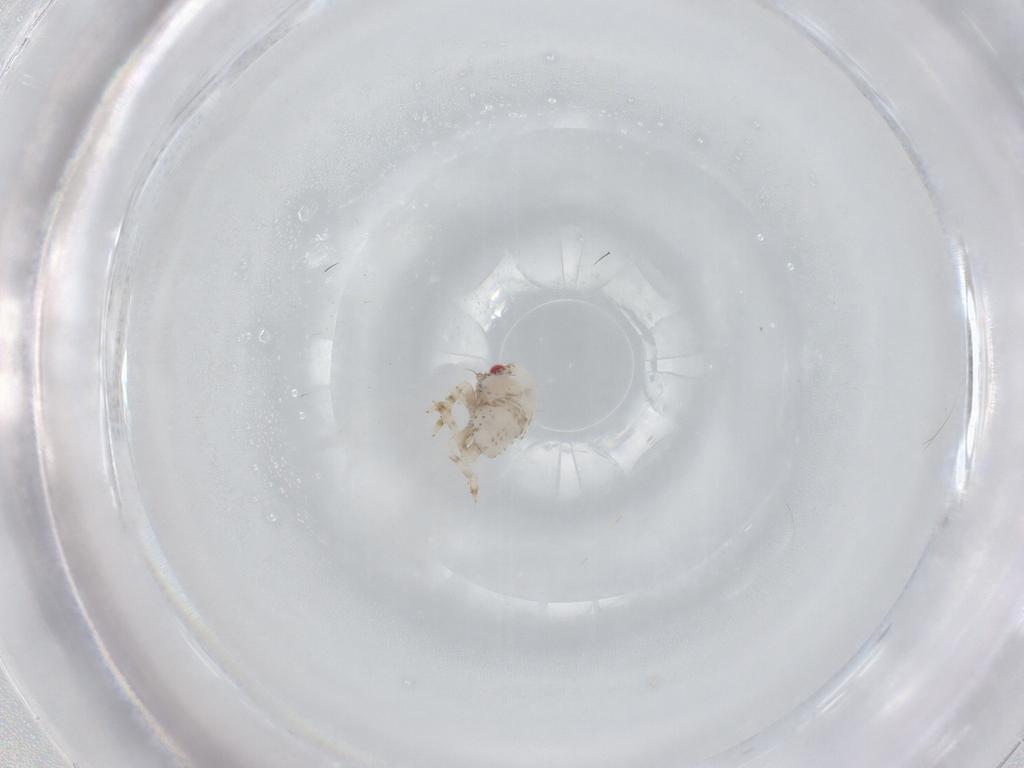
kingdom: Animalia
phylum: Arthropoda
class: Insecta
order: Hemiptera
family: Acanaloniidae
